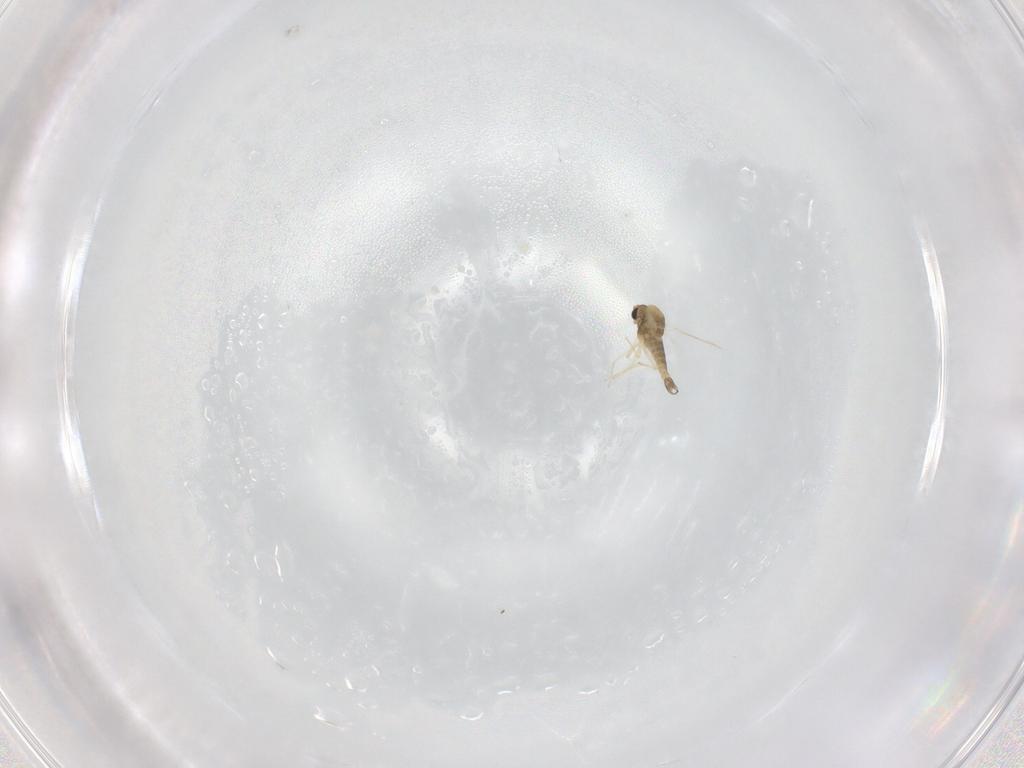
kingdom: Animalia
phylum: Arthropoda
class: Insecta
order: Diptera
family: Chironomidae
